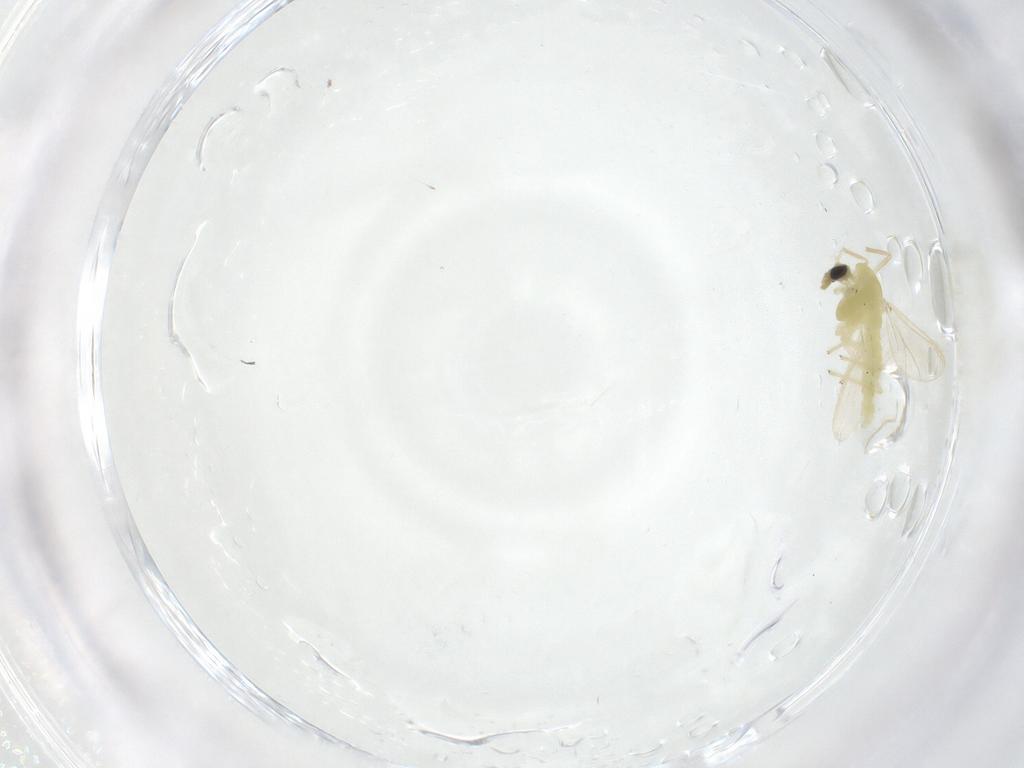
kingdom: Animalia
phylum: Arthropoda
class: Insecta
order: Diptera
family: Chironomidae
